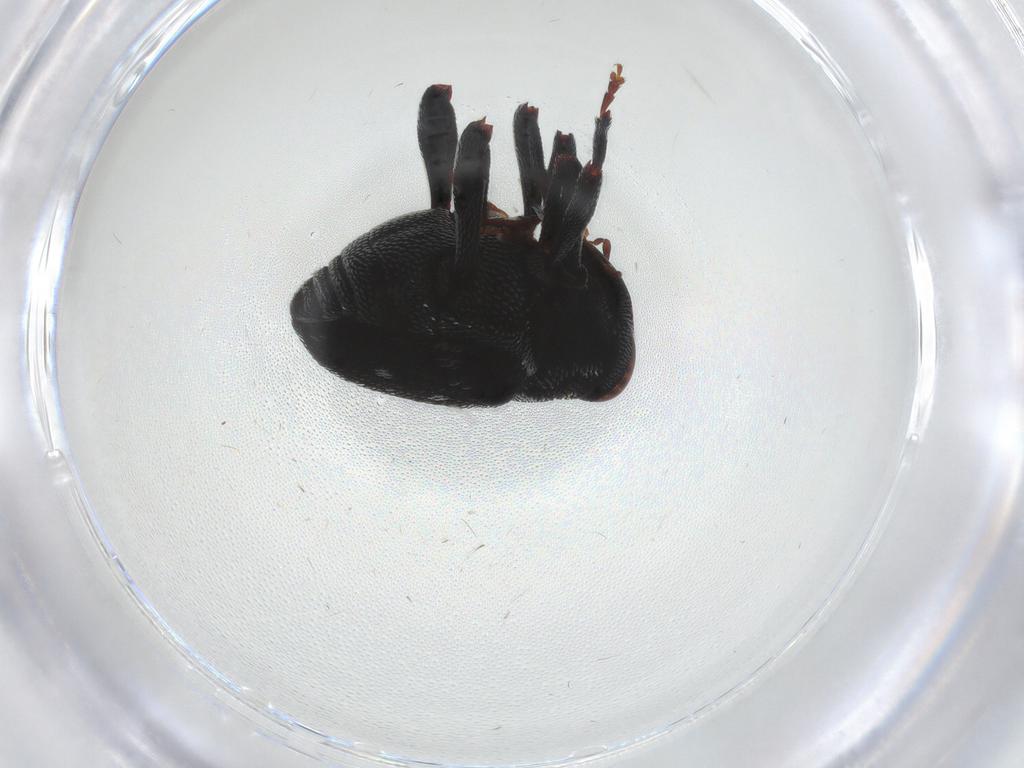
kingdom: Animalia
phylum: Arthropoda
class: Insecta
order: Coleoptera
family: Curculionidae
